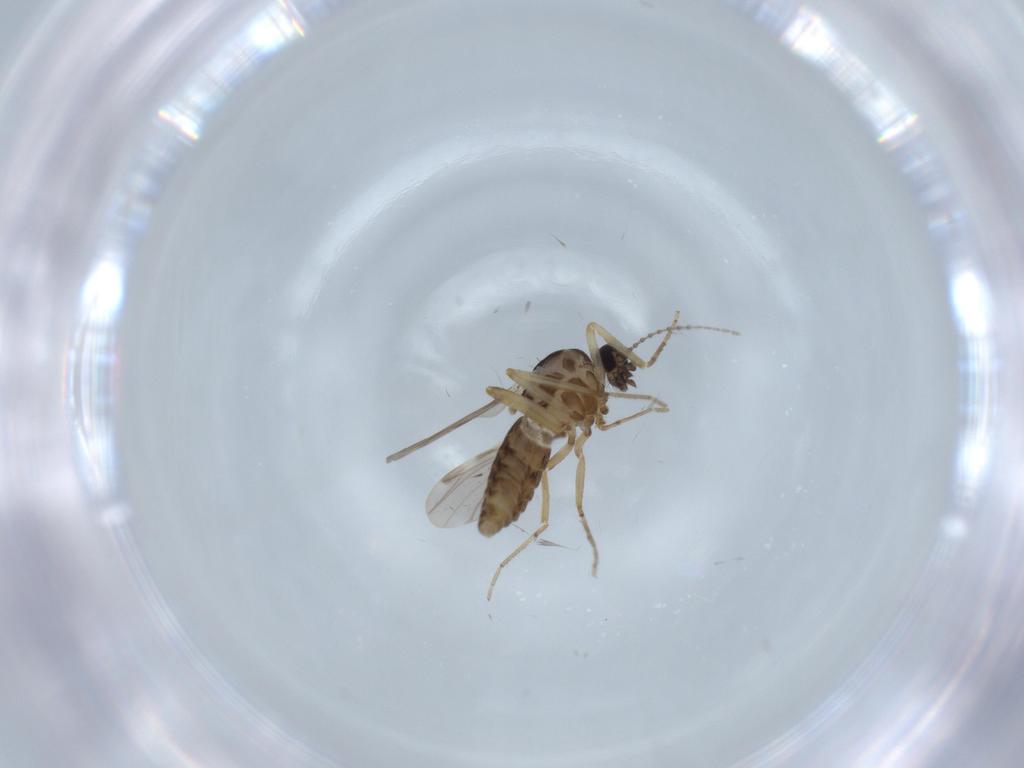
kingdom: Animalia
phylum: Arthropoda
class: Insecta
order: Diptera
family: Ceratopogonidae
